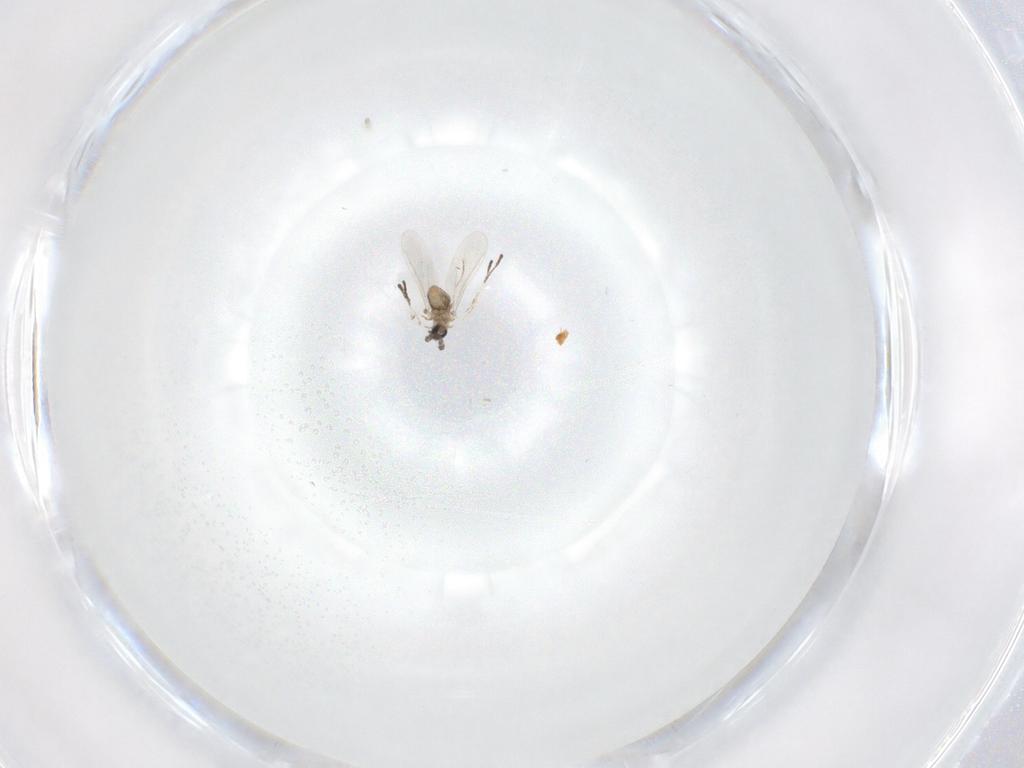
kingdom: Animalia
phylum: Arthropoda
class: Insecta
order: Diptera
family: Cecidomyiidae
